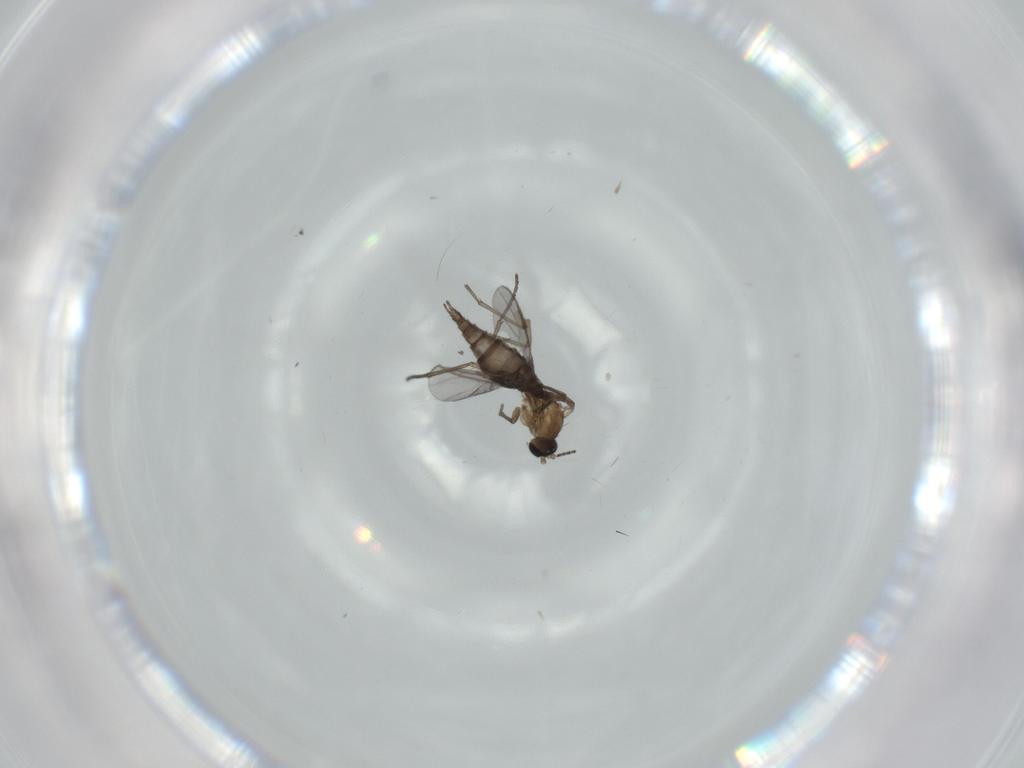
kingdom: Animalia
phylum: Arthropoda
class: Insecta
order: Diptera
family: Sciaridae
